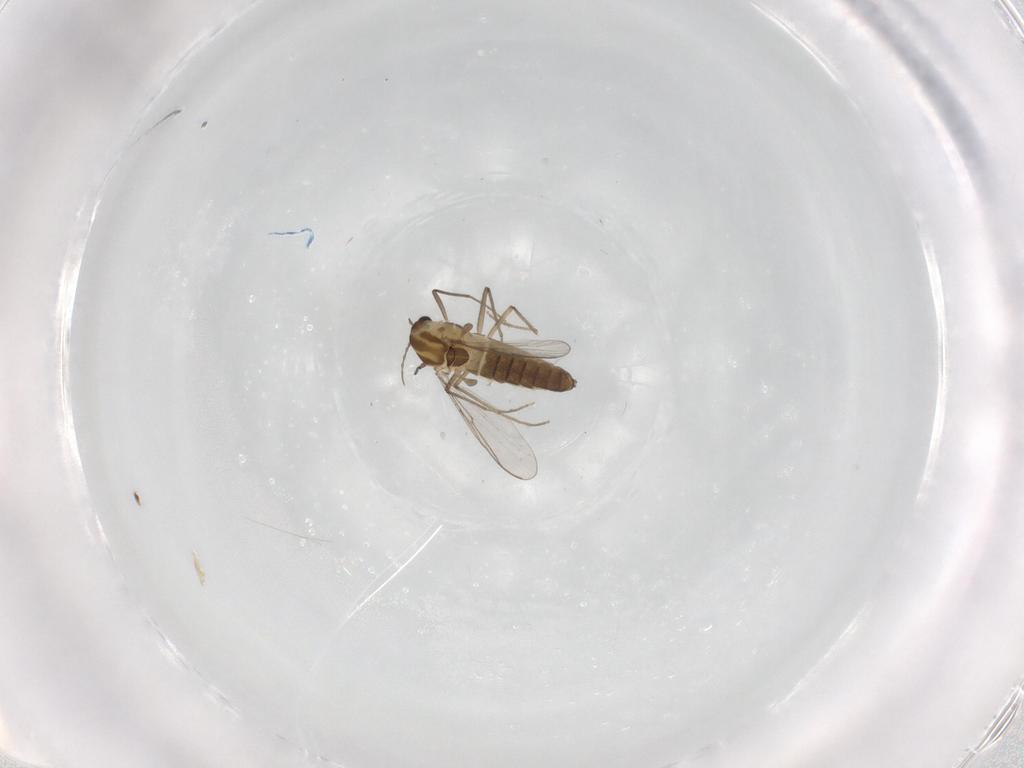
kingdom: Animalia
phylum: Arthropoda
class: Insecta
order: Diptera
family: Chironomidae
